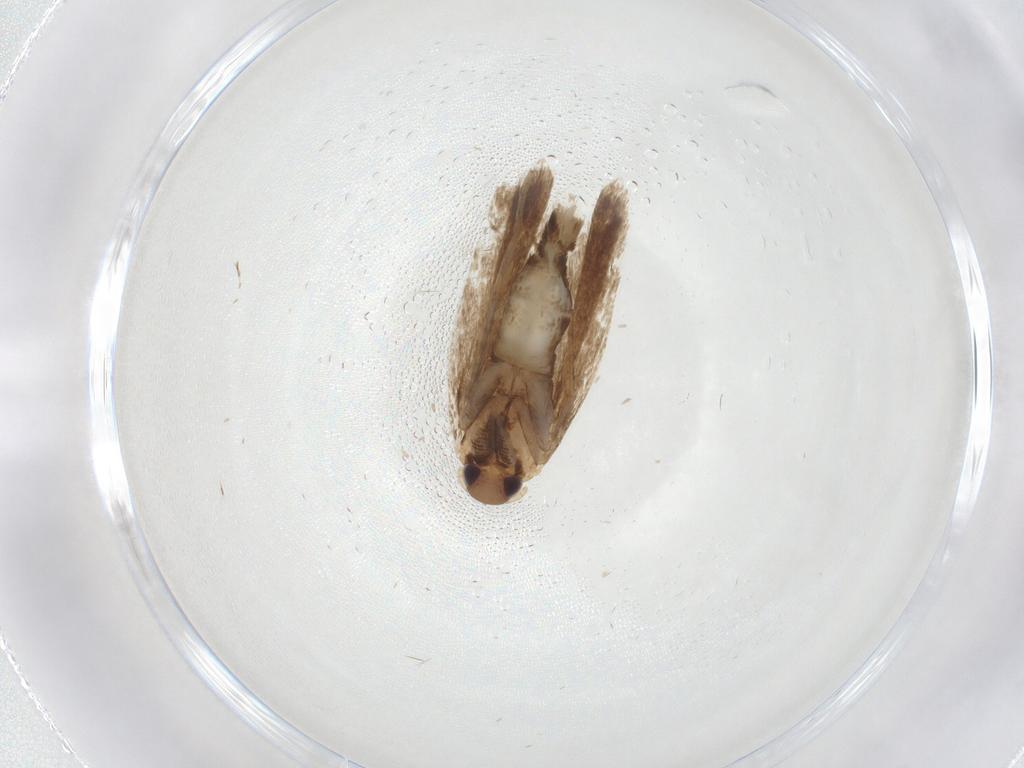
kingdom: Animalia
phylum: Arthropoda
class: Insecta
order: Lepidoptera
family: Gelechiidae
